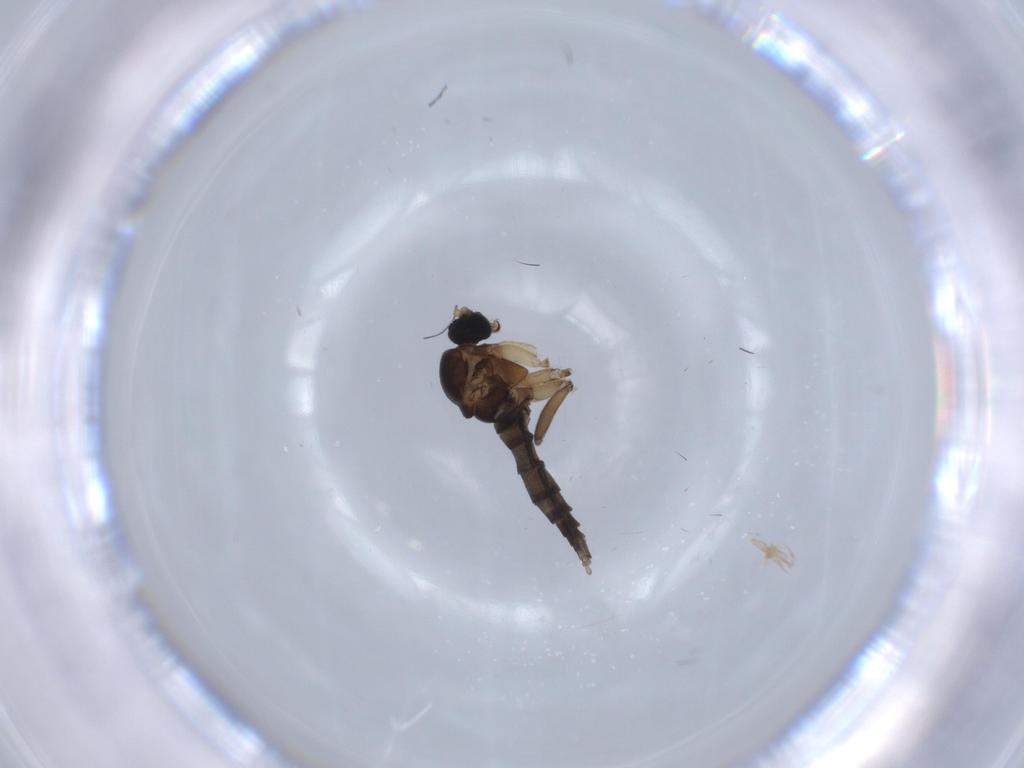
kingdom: Animalia
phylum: Arthropoda
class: Insecta
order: Diptera
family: Sciaridae
